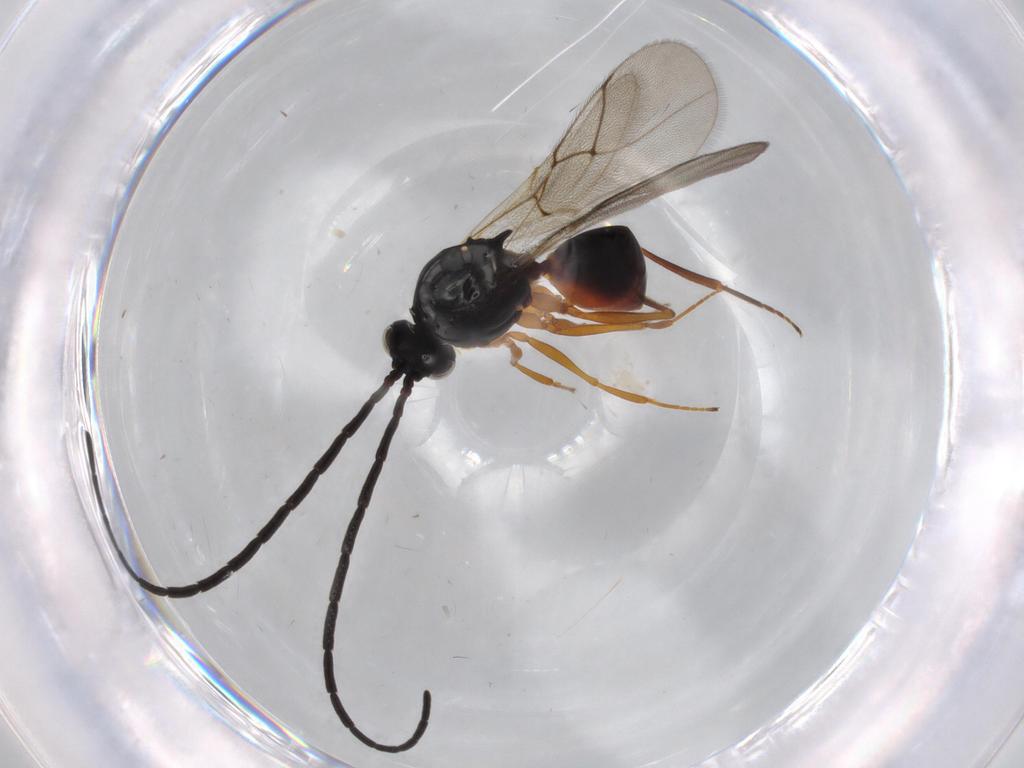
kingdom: Animalia
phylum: Arthropoda
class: Insecta
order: Hymenoptera
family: Figitidae
